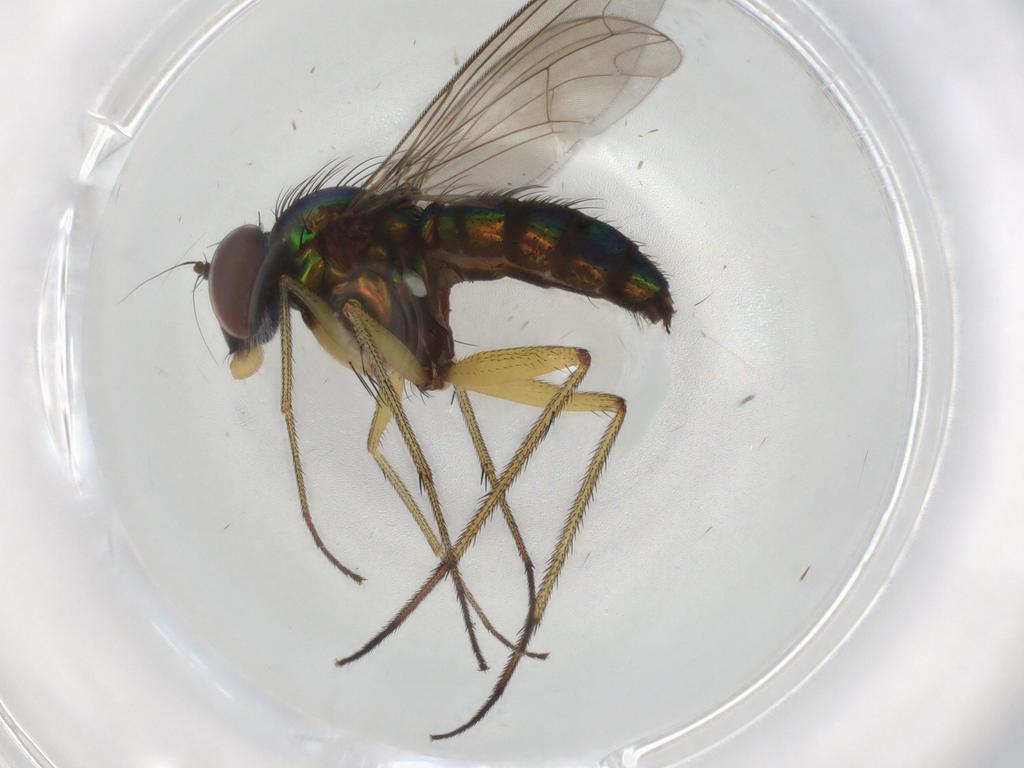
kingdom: Animalia
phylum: Arthropoda
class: Insecta
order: Diptera
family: Dolichopodidae
